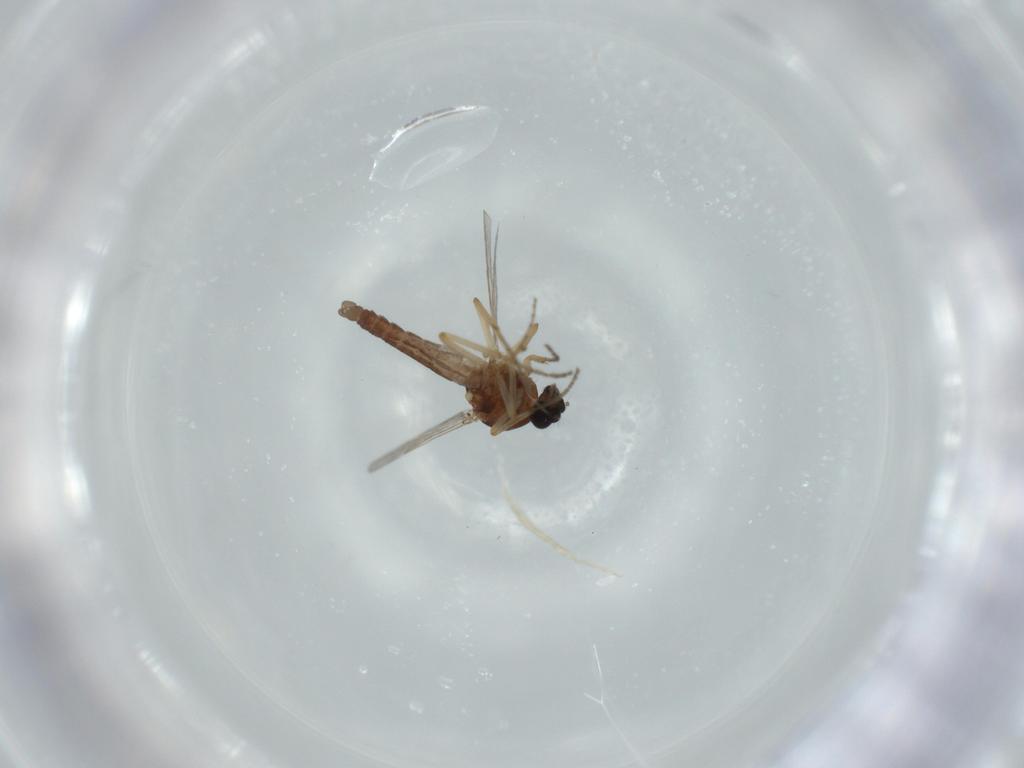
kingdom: Animalia
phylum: Arthropoda
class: Insecta
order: Diptera
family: Ceratopogonidae
